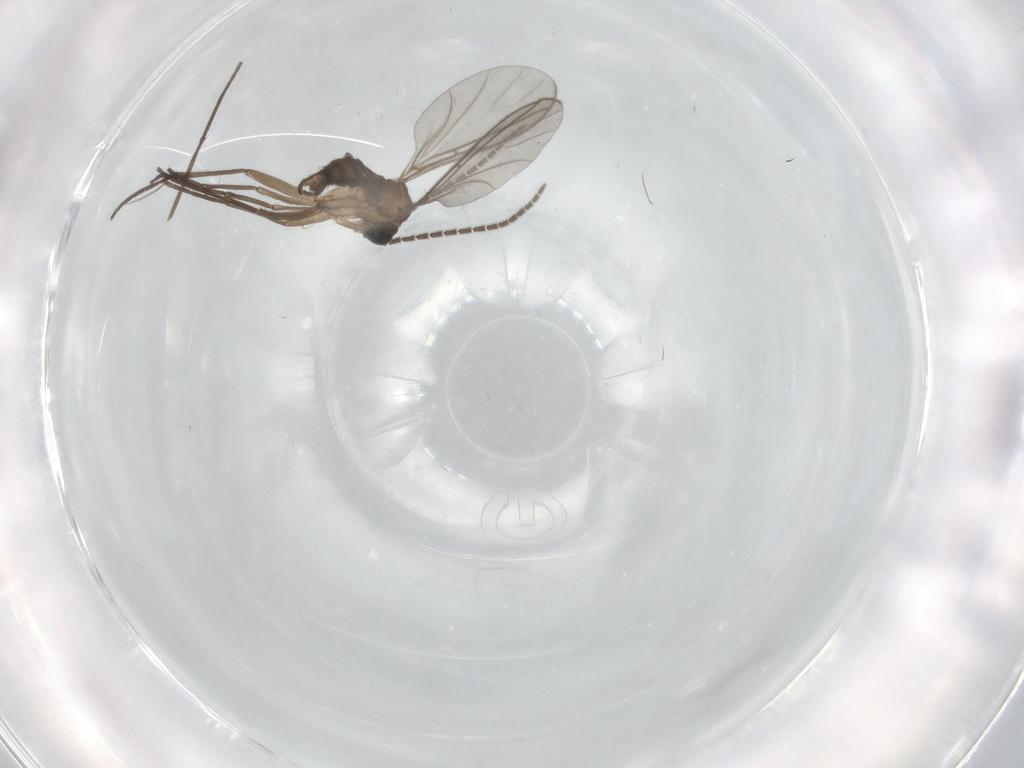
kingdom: Animalia
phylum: Arthropoda
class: Insecta
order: Diptera
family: Sciaridae
